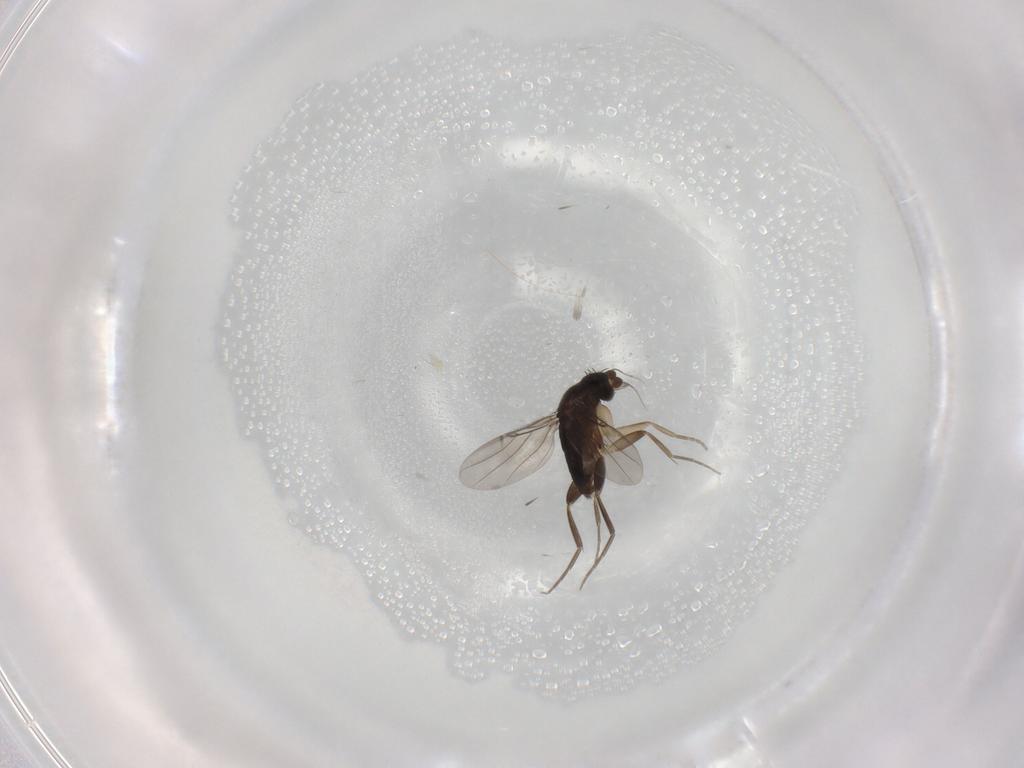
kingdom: Animalia
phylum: Arthropoda
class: Insecta
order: Diptera
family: Phoridae
